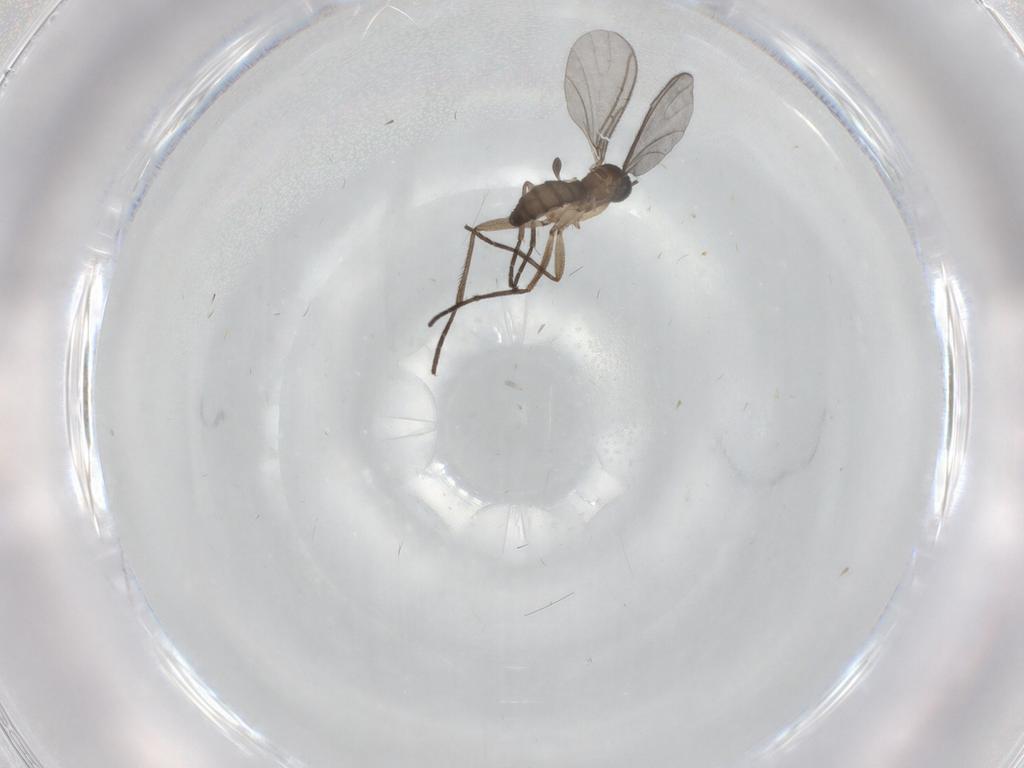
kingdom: Animalia
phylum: Arthropoda
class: Insecta
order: Diptera
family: Sciaridae
